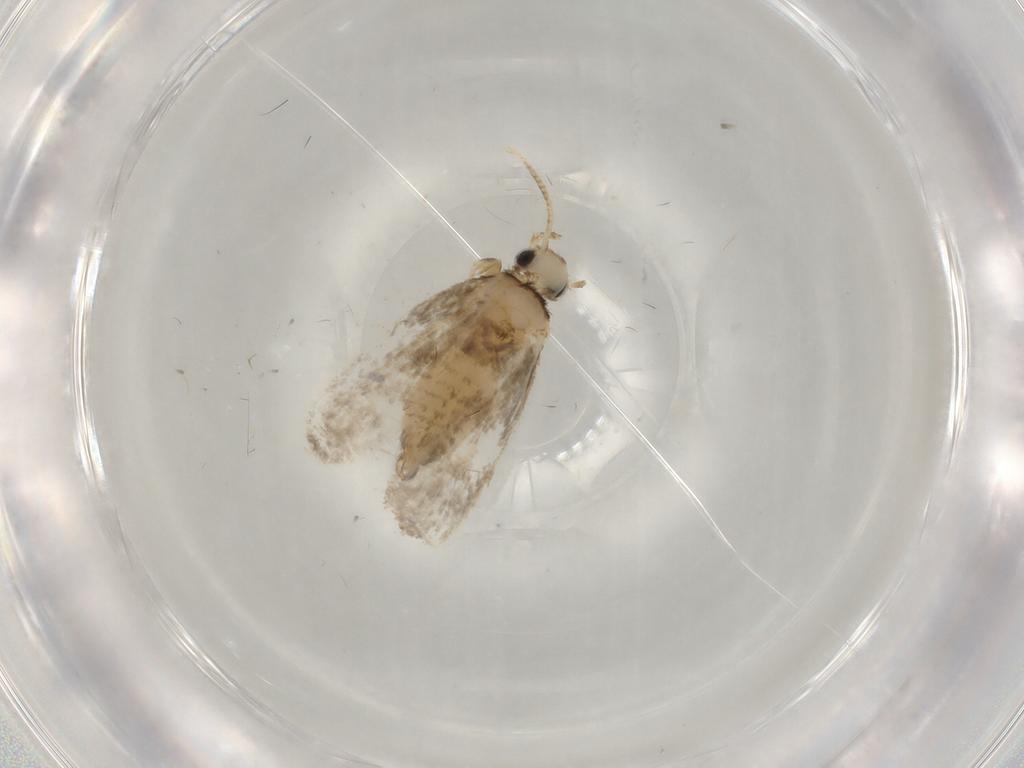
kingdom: Animalia
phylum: Arthropoda
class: Insecta
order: Lepidoptera
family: Psychidae
